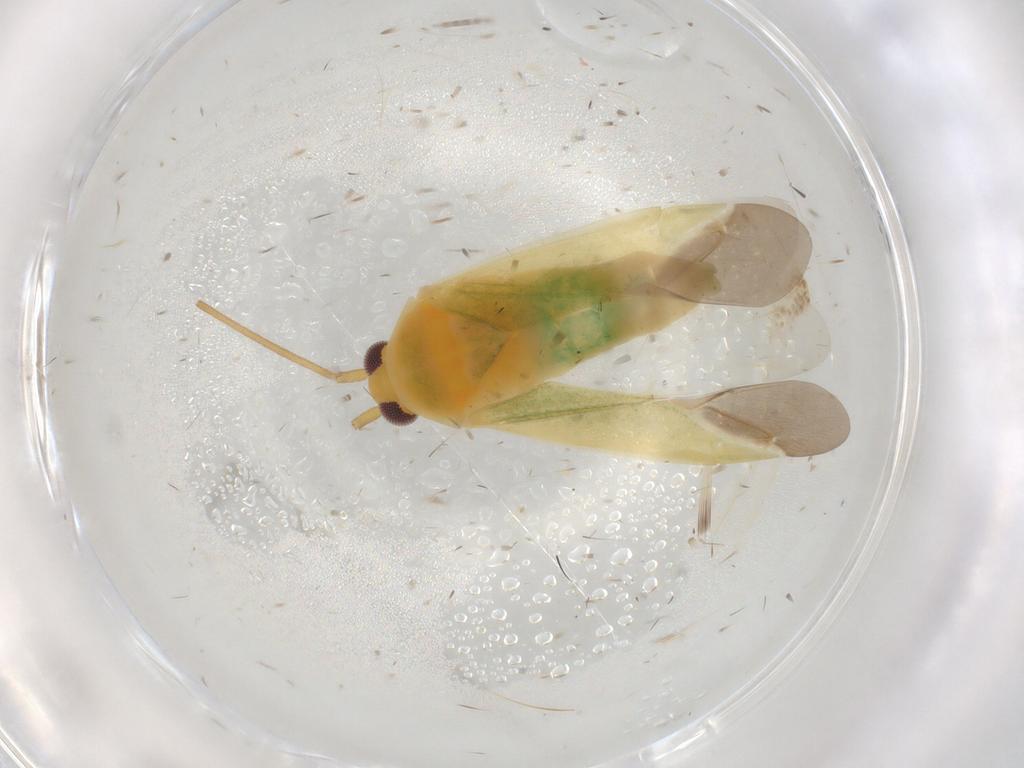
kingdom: Animalia
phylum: Arthropoda
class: Insecta
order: Hemiptera
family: Miridae
